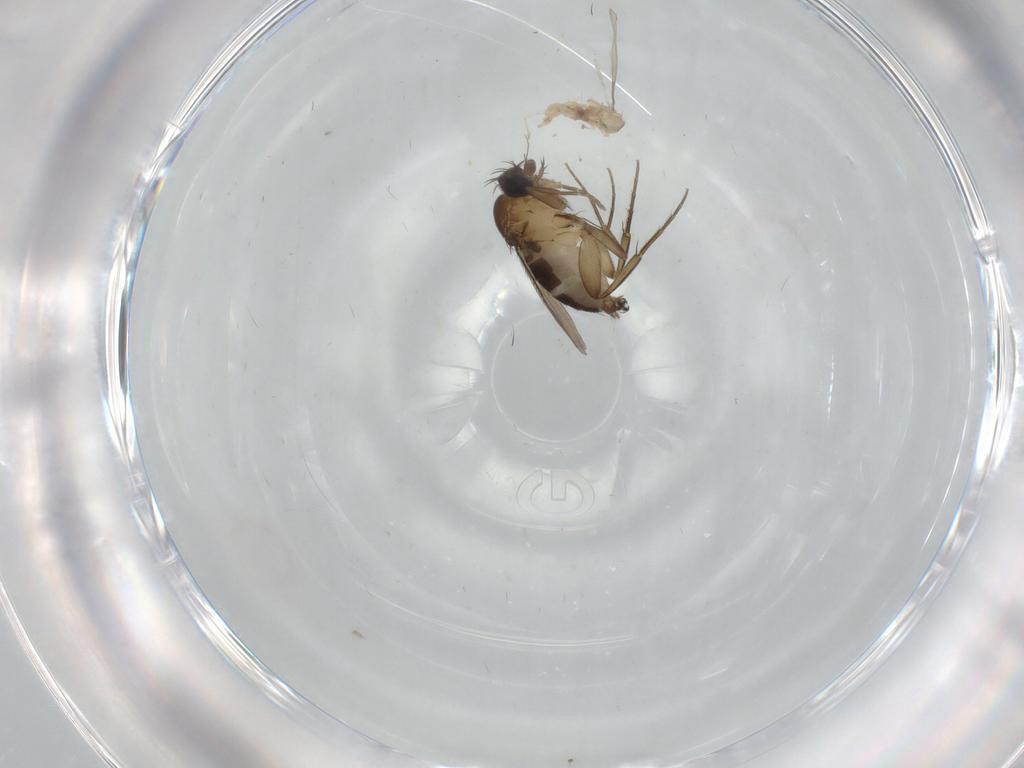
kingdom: Animalia
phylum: Arthropoda
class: Insecta
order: Diptera
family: Phoridae
